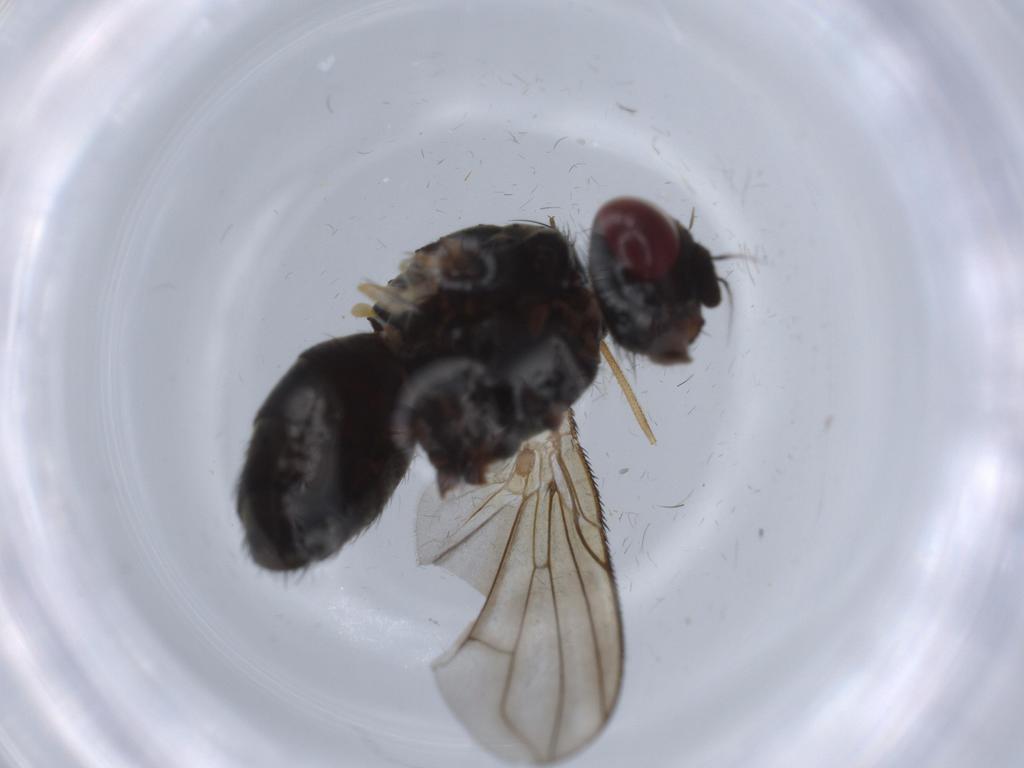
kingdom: Animalia
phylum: Arthropoda
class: Insecta
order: Diptera
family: Calliphoridae
